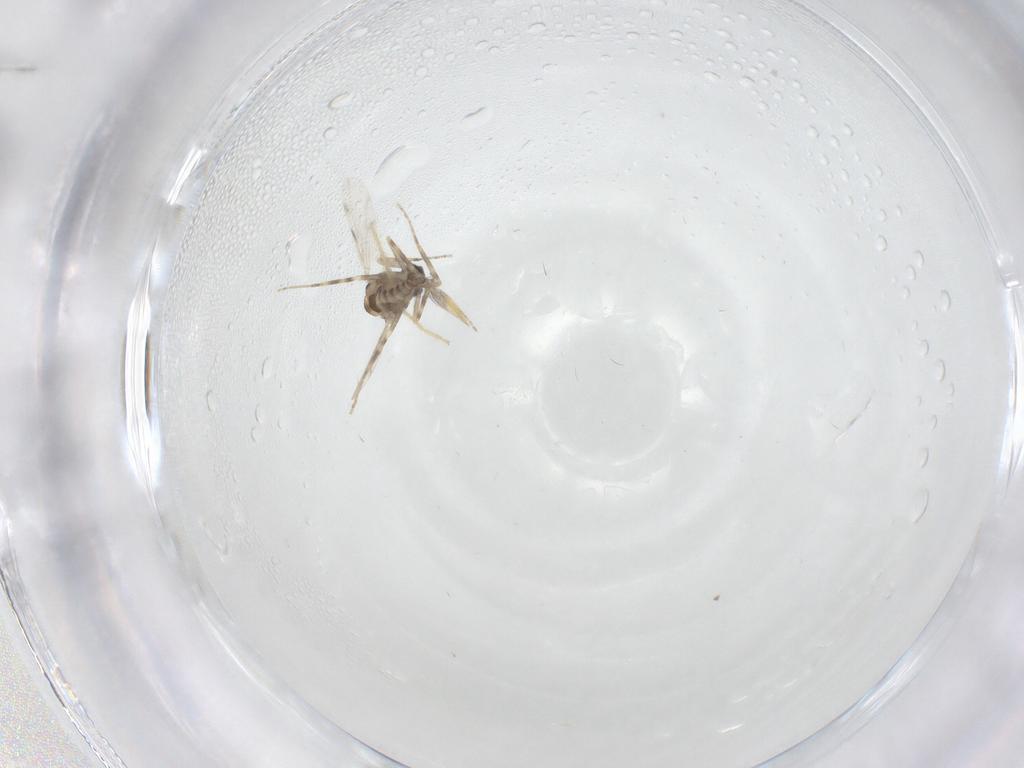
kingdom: Animalia
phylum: Arthropoda
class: Insecta
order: Diptera
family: Ceratopogonidae
